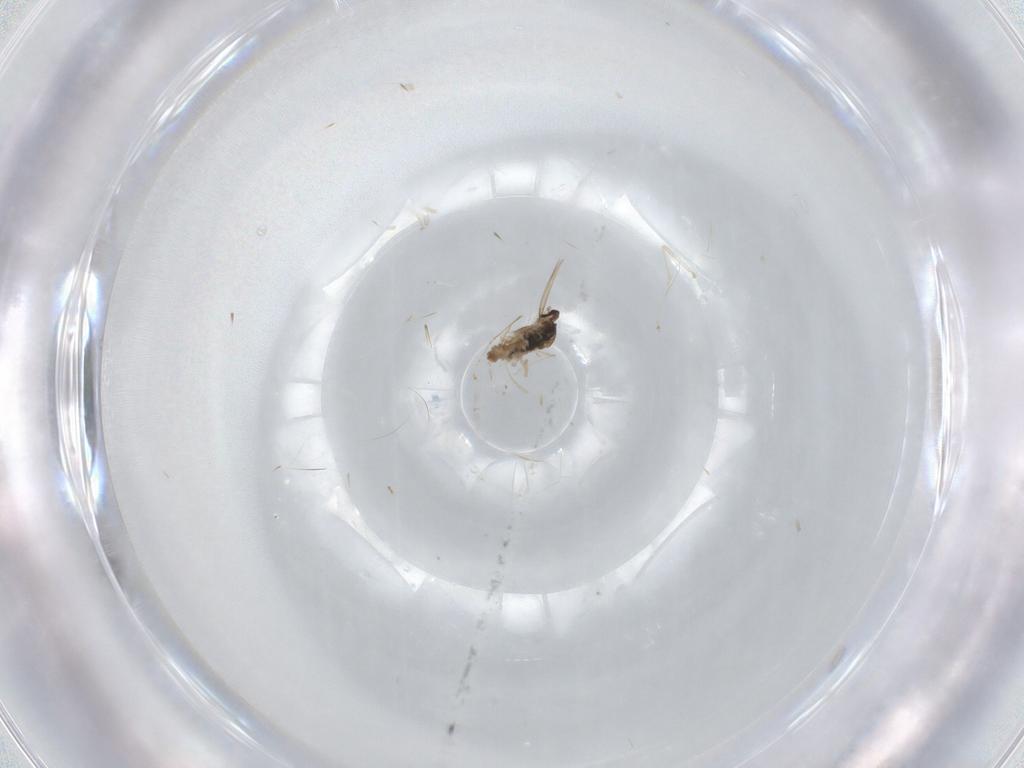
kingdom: Animalia
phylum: Arthropoda
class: Insecta
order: Diptera
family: Cecidomyiidae
